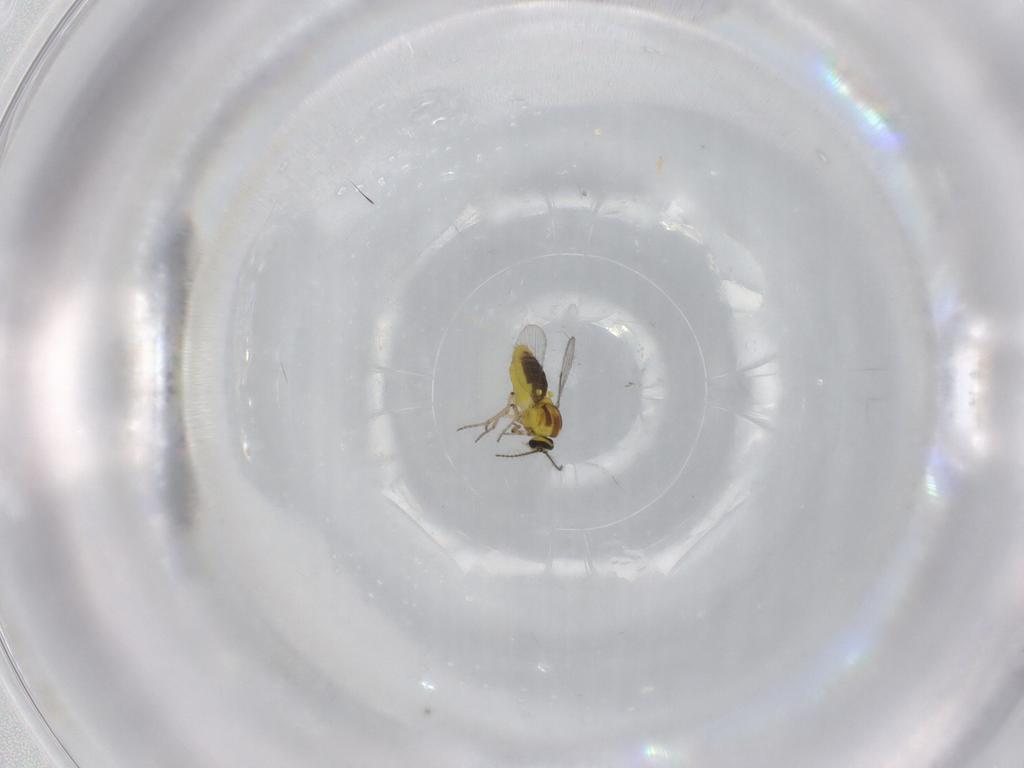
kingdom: Animalia
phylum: Arthropoda
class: Insecta
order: Diptera
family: Ceratopogonidae
